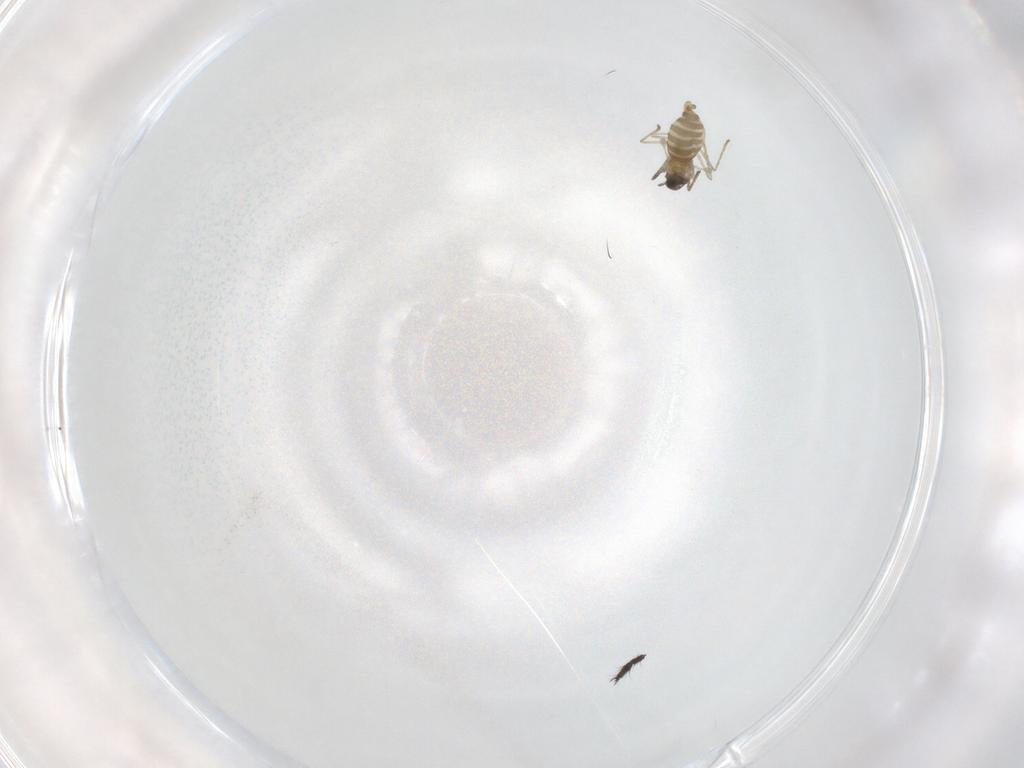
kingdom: Animalia
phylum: Arthropoda
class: Insecta
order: Diptera
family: Cecidomyiidae
